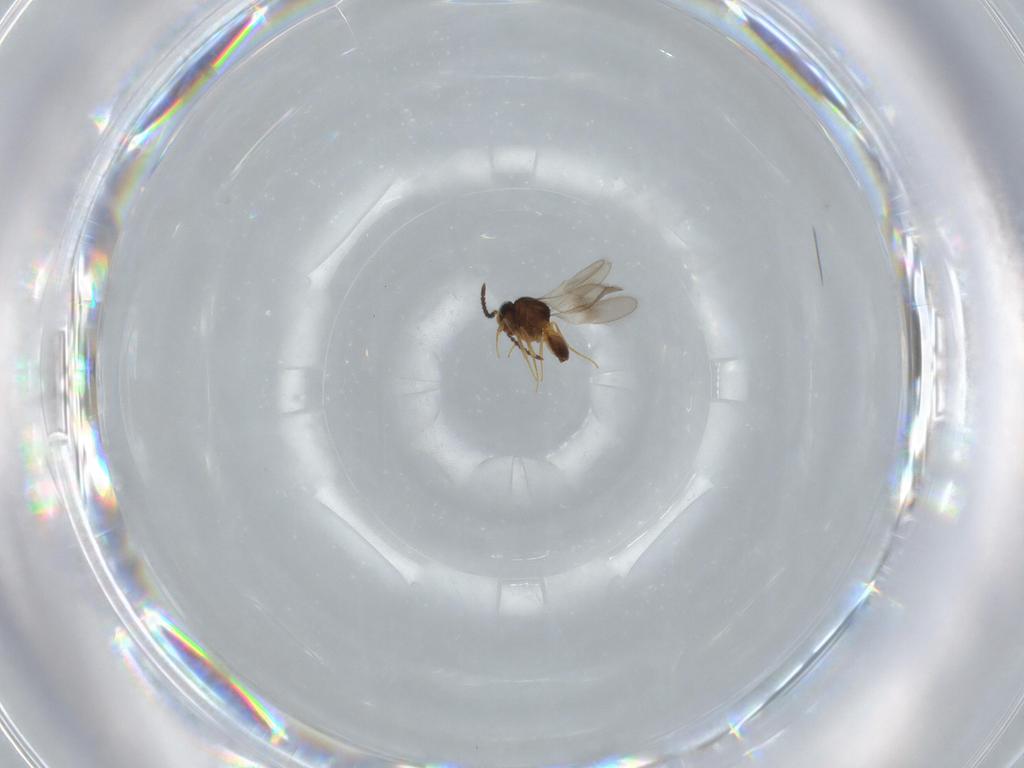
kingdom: Animalia
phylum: Arthropoda
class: Insecta
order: Hymenoptera
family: Scelionidae
